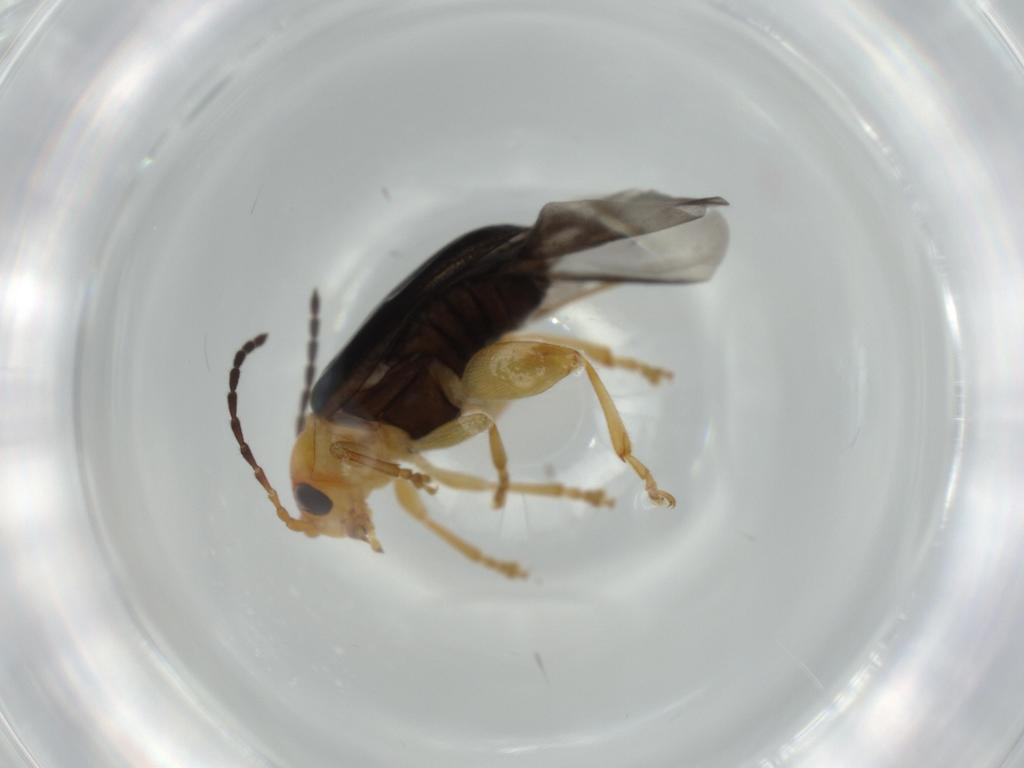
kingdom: Animalia
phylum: Arthropoda
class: Insecta
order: Coleoptera
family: Chrysomelidae
